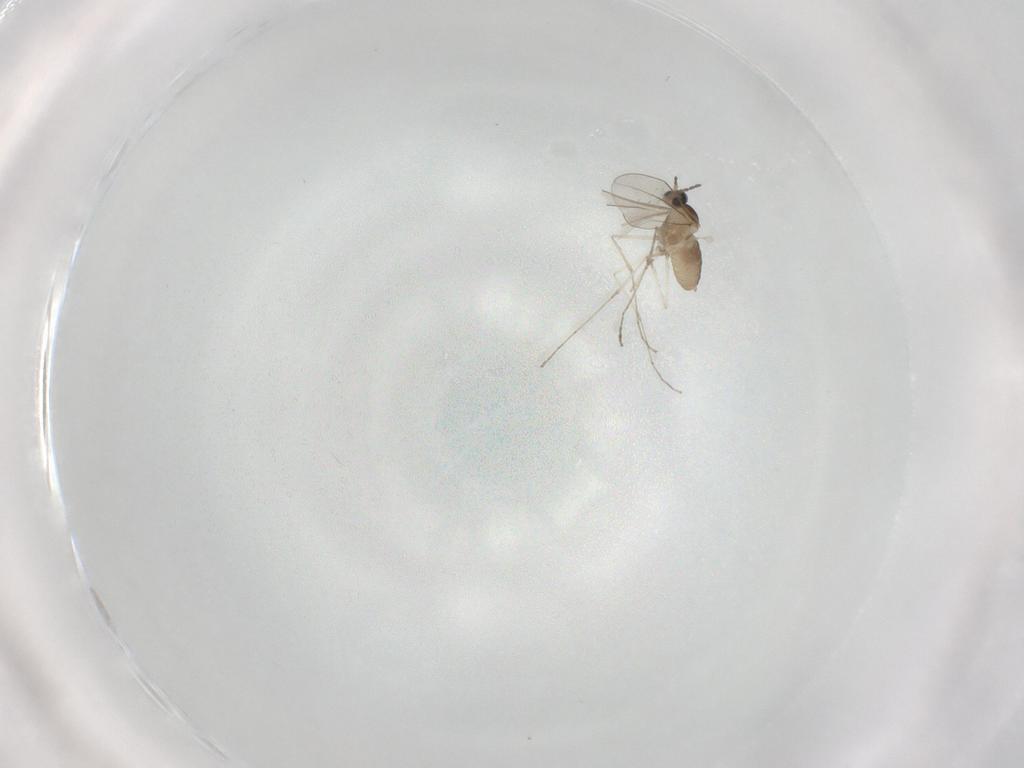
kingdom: Animalia
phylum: Arthropoda
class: Insecta
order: Diptera
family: Cecidomyiidae
